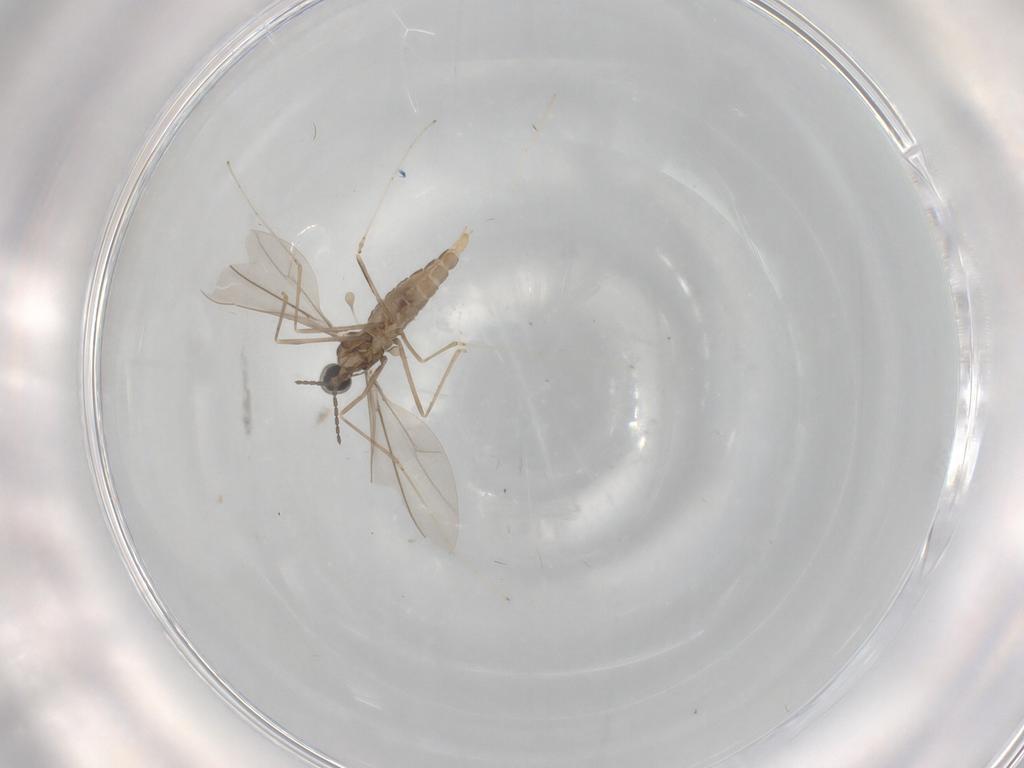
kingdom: Animalia
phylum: Arthropoda
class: Insecta
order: Diptera
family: Cecidomyiidae
